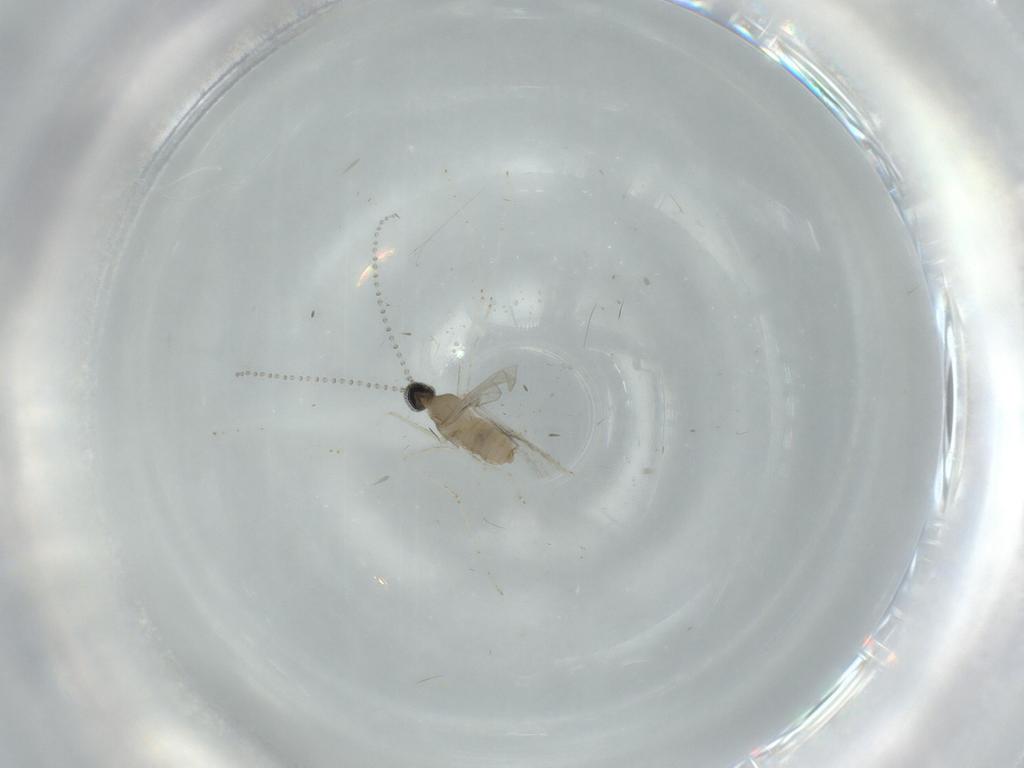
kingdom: Animalia
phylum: Arthropoda
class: Insecta
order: Diptera
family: Cecidomyiidae
